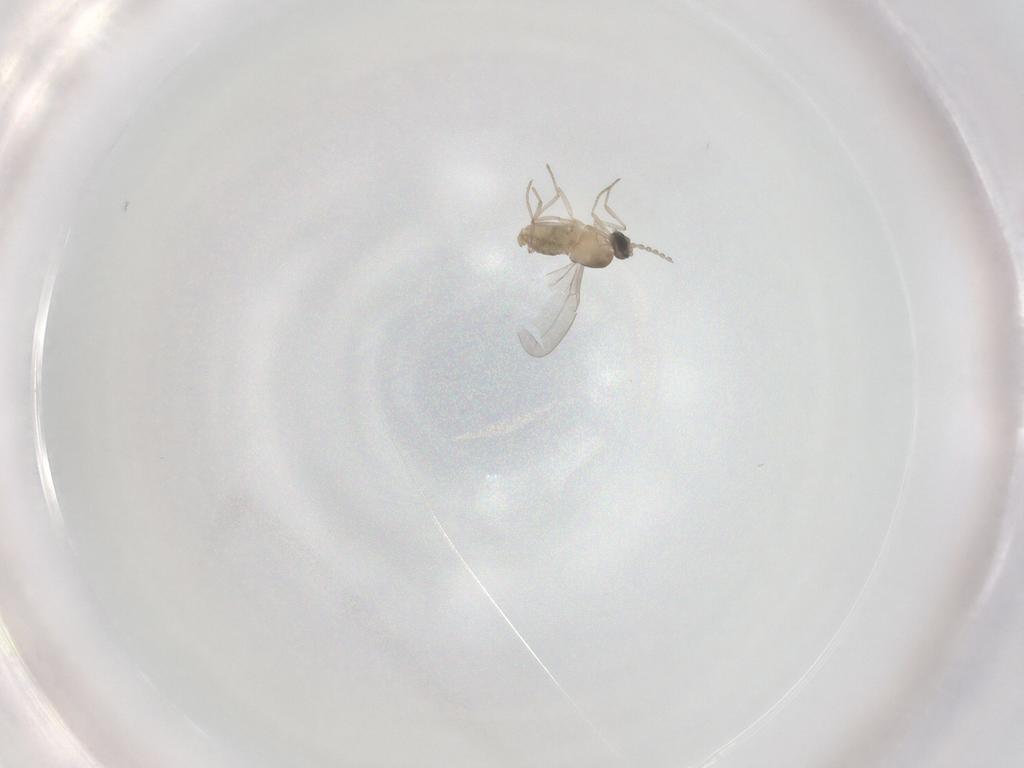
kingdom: Animalia
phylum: Arthropoda
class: Insecta
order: Diptera
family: Cecidomyiidae
